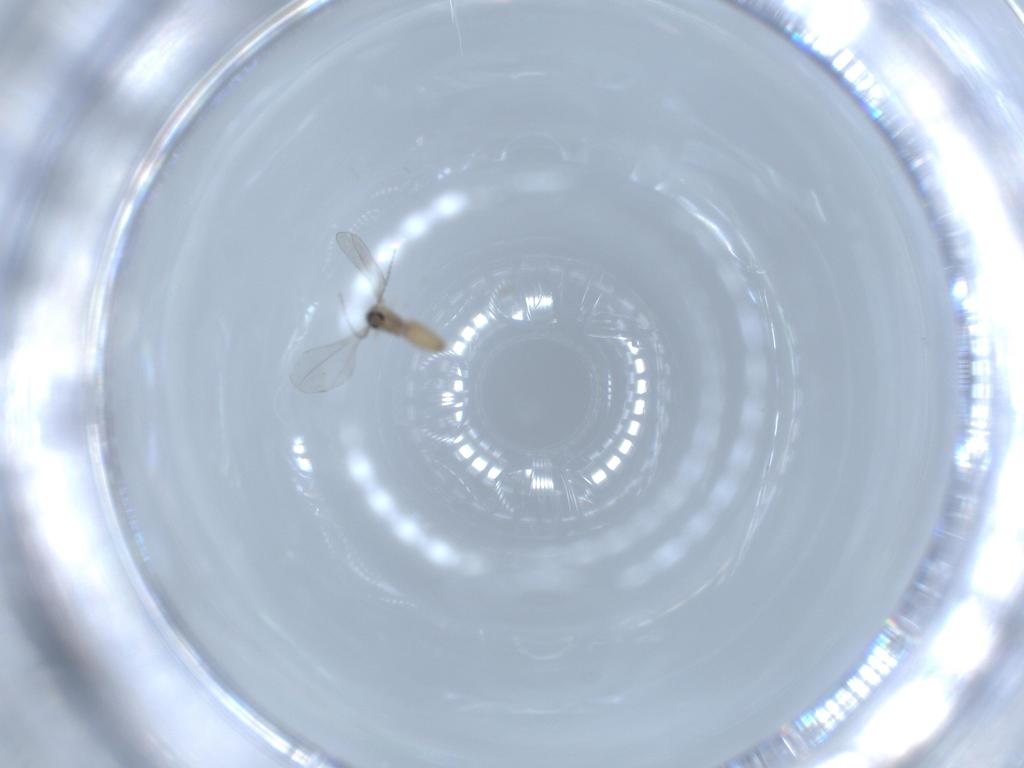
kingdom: Animalia
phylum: Arthropoda
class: Insecta
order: Diptera
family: Cecidomyiidae
